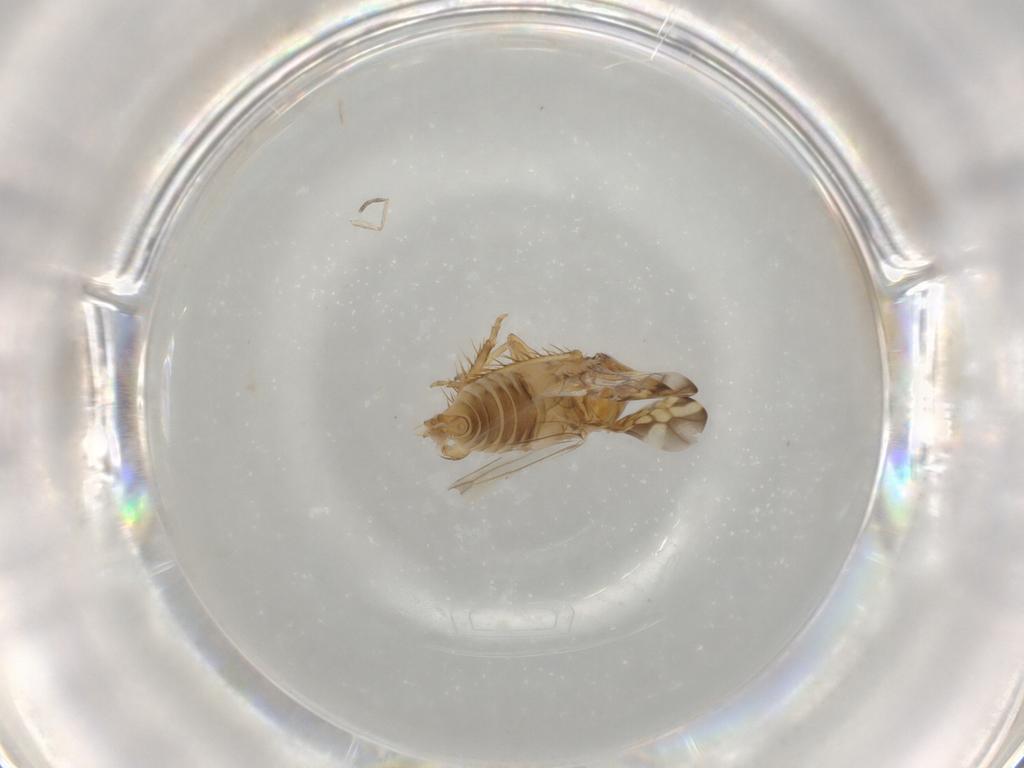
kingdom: Animalia
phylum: Arthropoda
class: Insecta
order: Hemiptera
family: Cicadellidae
